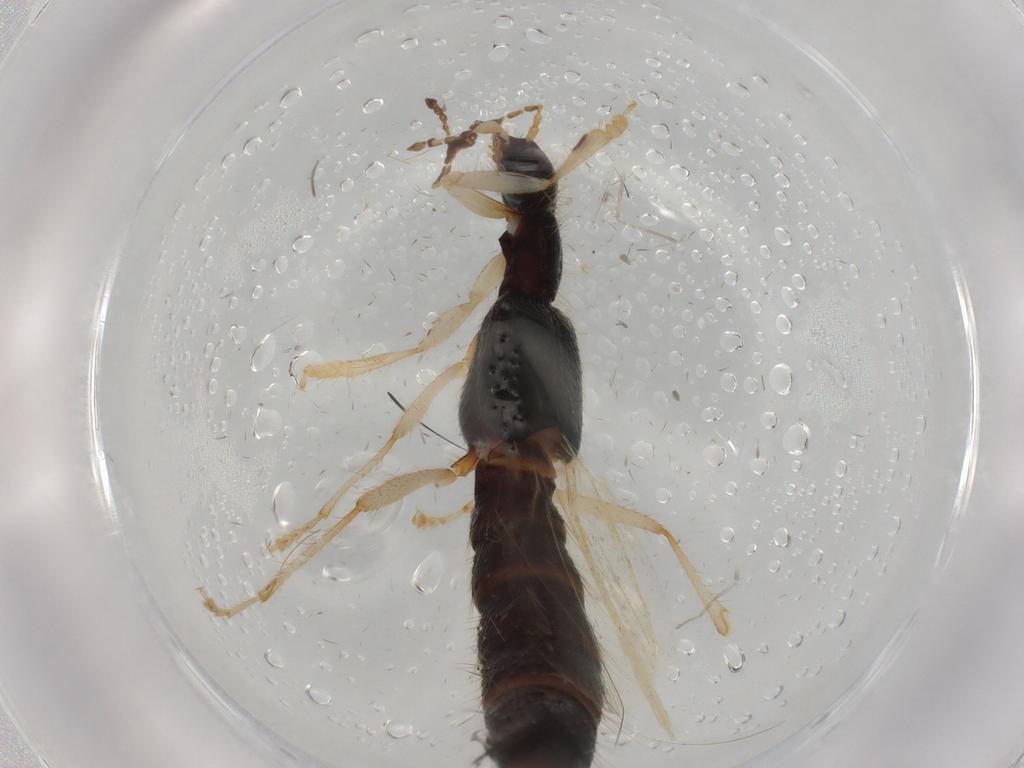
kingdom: Animalia
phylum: Arthropoda
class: Insecta
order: Coleoptera
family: Staphylinidae
